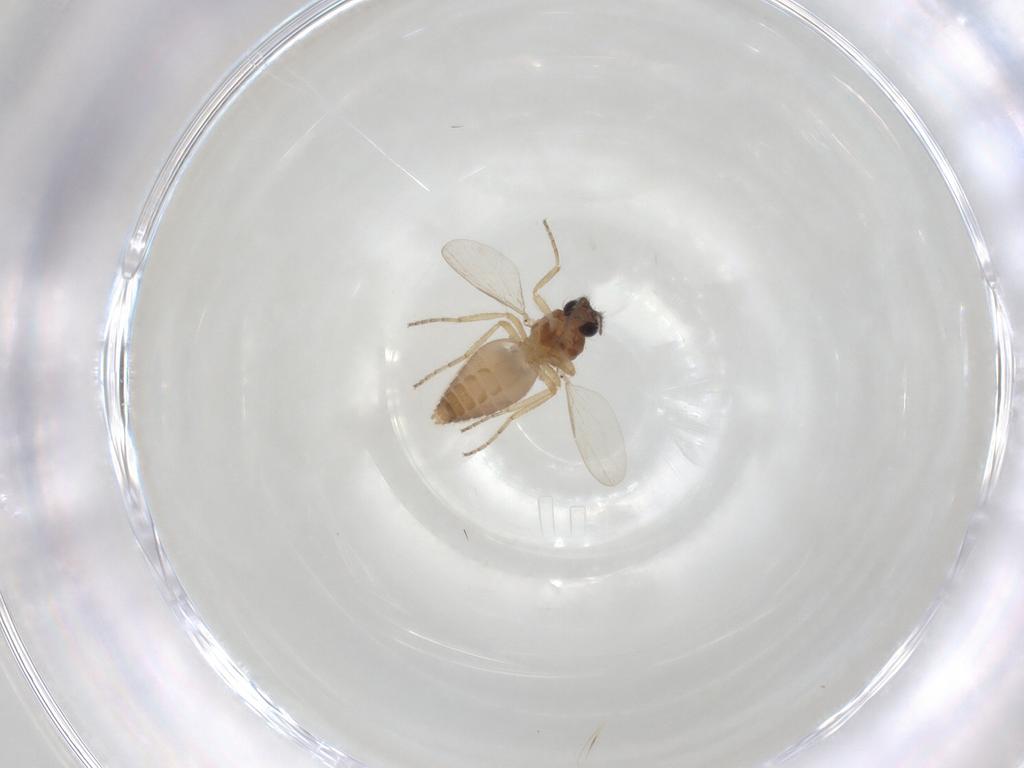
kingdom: Animalia
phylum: Arthropoda
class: Insecta
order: Diptera
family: Ceratopogonidae
